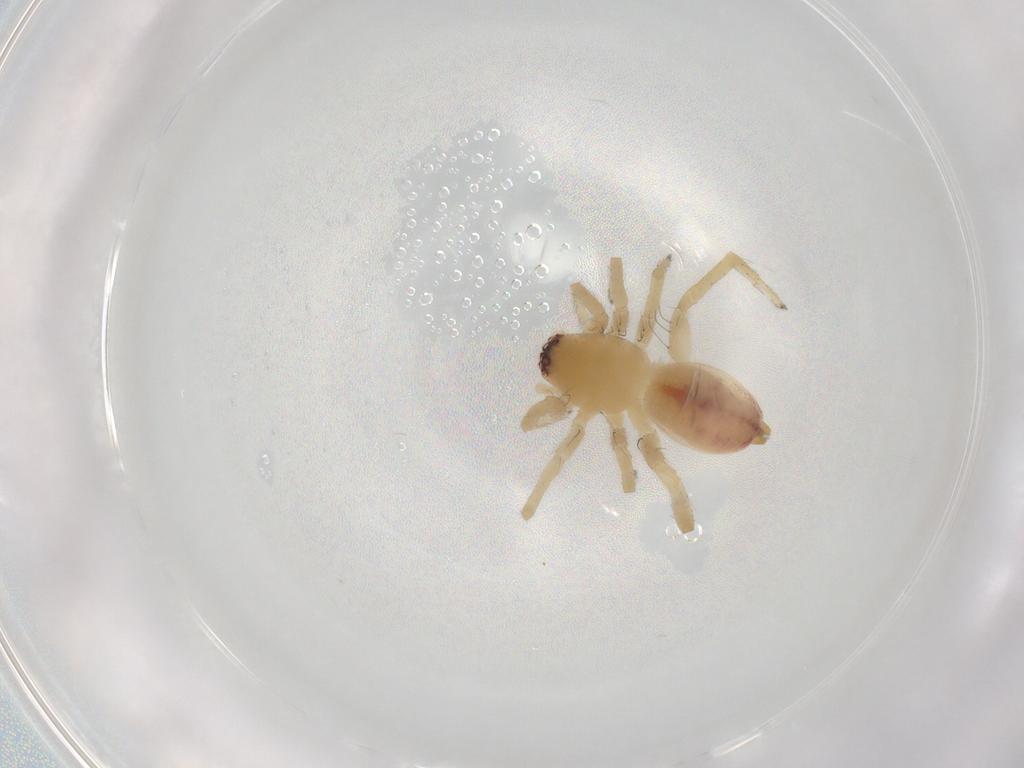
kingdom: Animalia
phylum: Arthropoda
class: Arachnida
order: Araneae
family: Clubionidae
